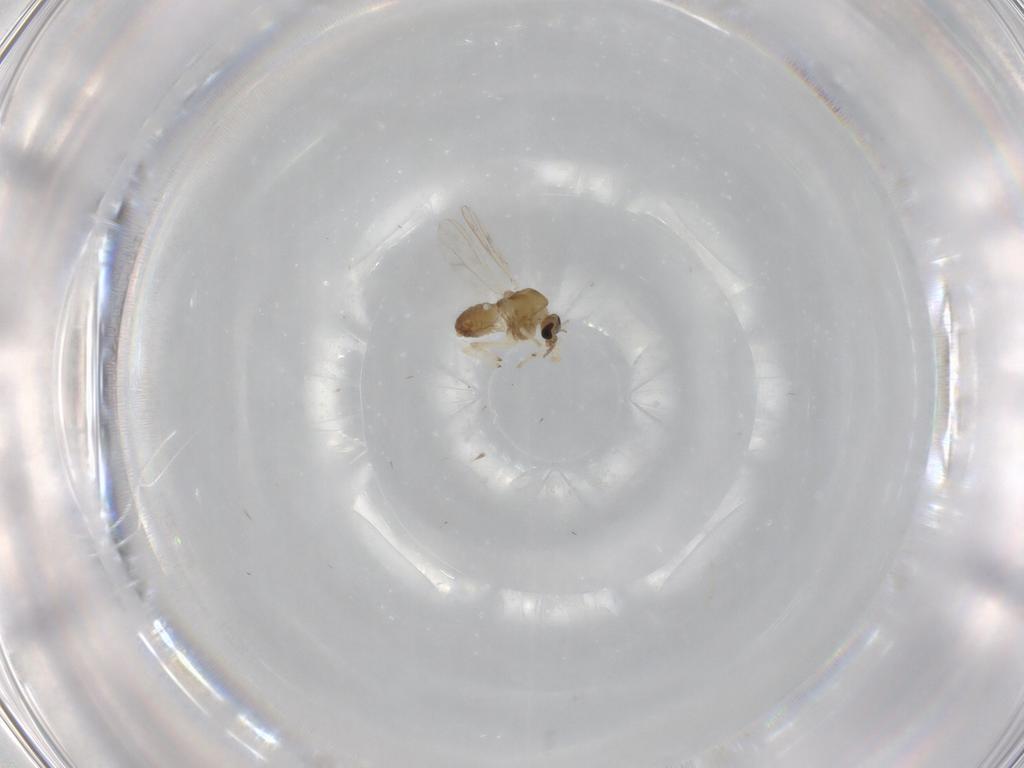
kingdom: Animalia
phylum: Arthropoda
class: Insecta
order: Diptera
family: Chironomidae
